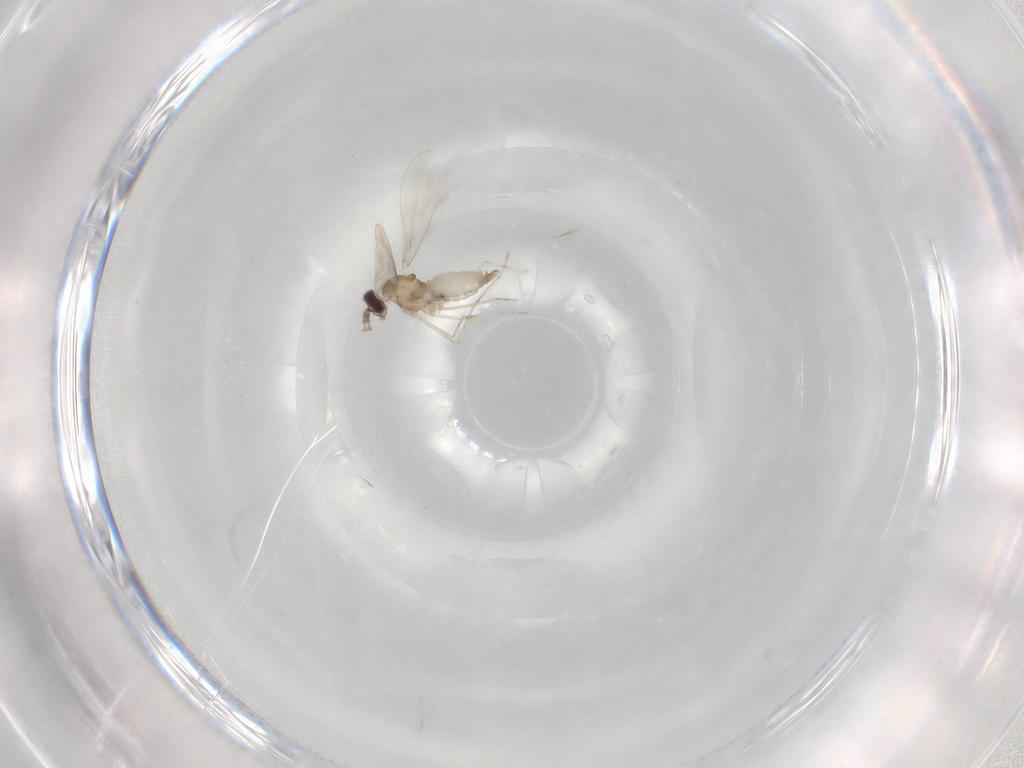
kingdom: Animalia
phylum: Arthropoda
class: Insecta
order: Diptera
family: Cecidomyiidae
